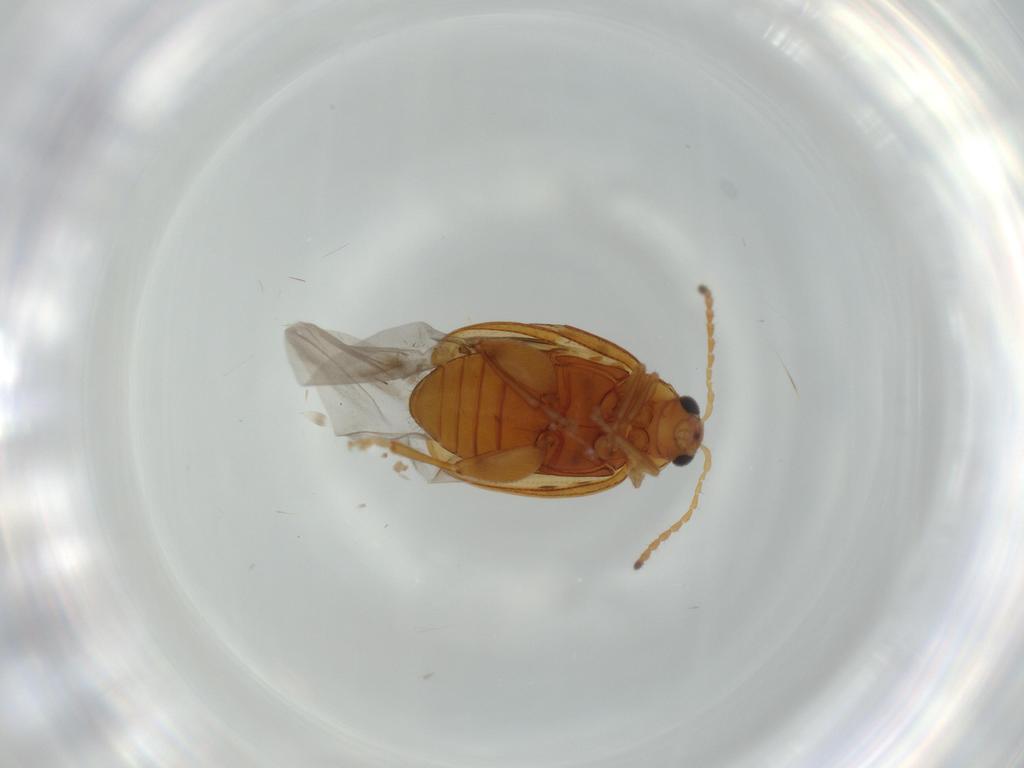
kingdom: Animalia
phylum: Arthropoda
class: Insecta
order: Coleoptera
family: Chrysomelidae
